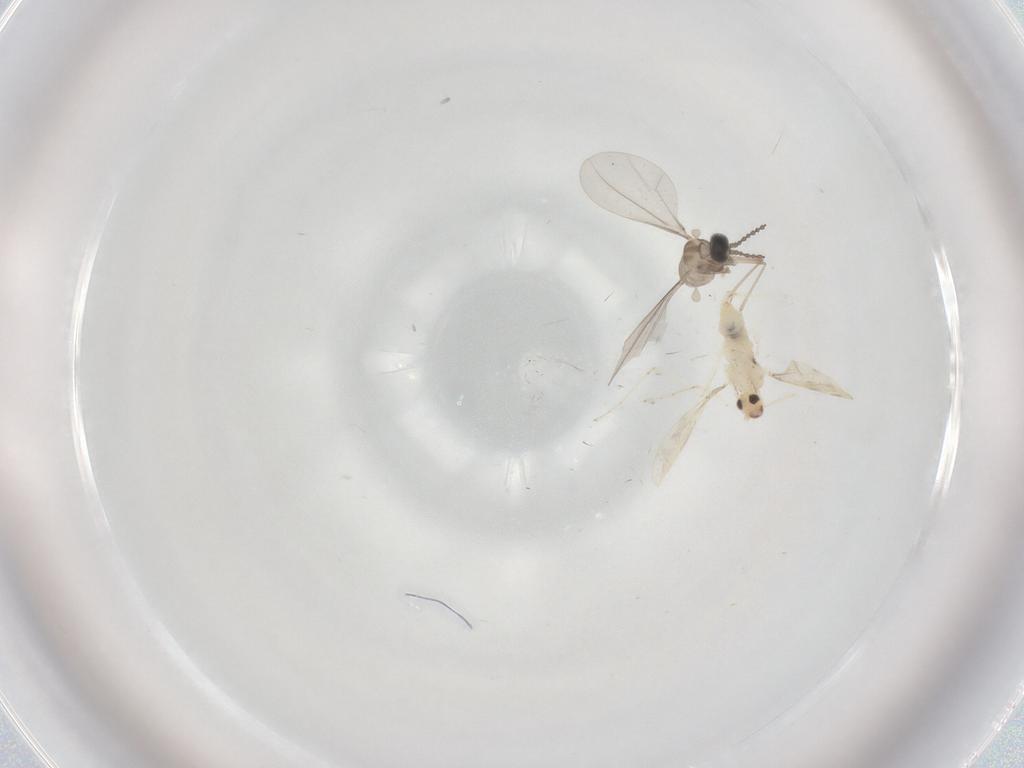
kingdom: Animalia
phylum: Arthropoda
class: Insecta
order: Diptera
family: Cecidomyiidae
